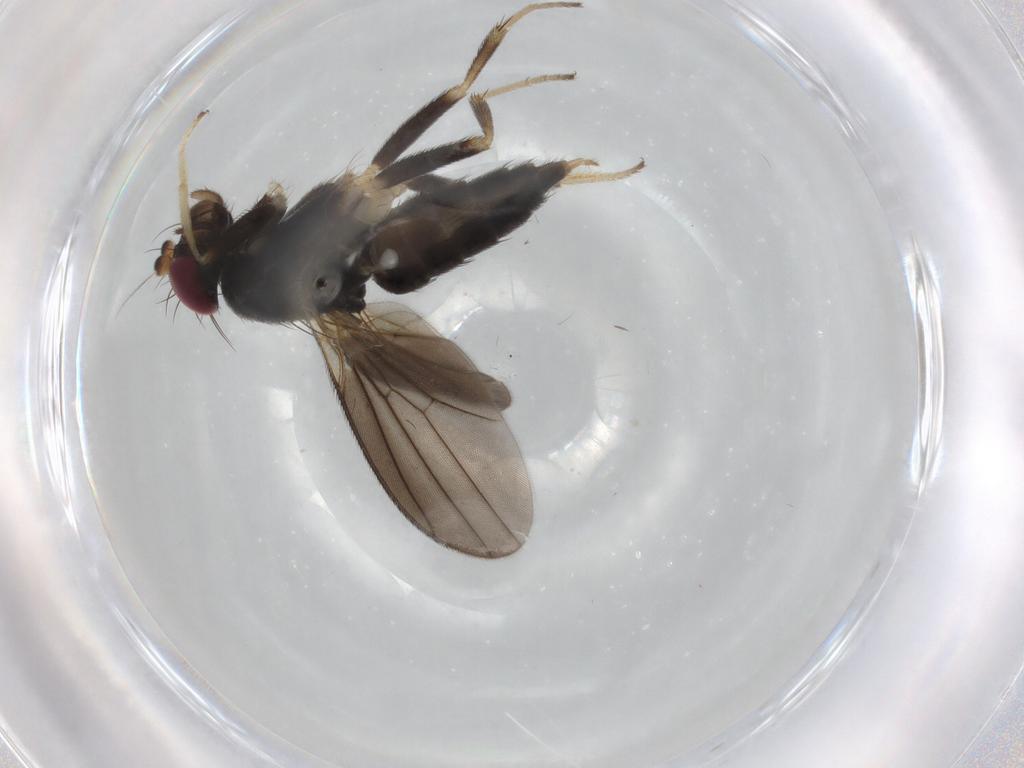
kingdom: Animalia
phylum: Arthropoda
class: Insecta
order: Diptera
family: Clusiidae
